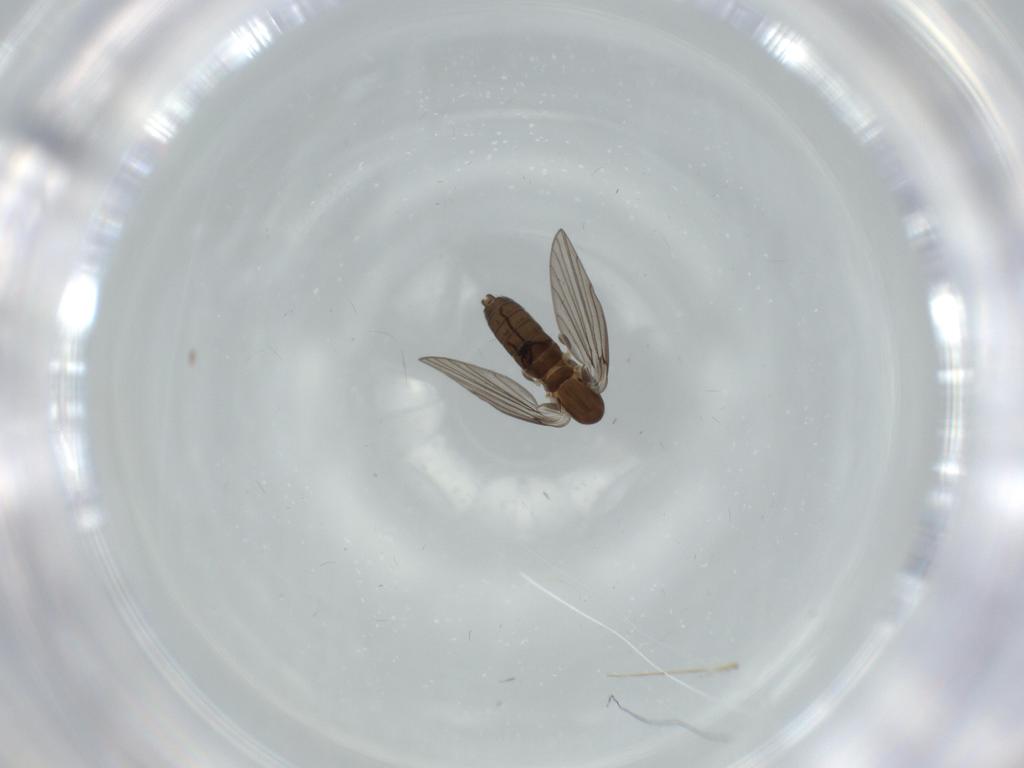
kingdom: Animalia
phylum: Arthropoda
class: Insecta
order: Diptera
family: Psychodidae
